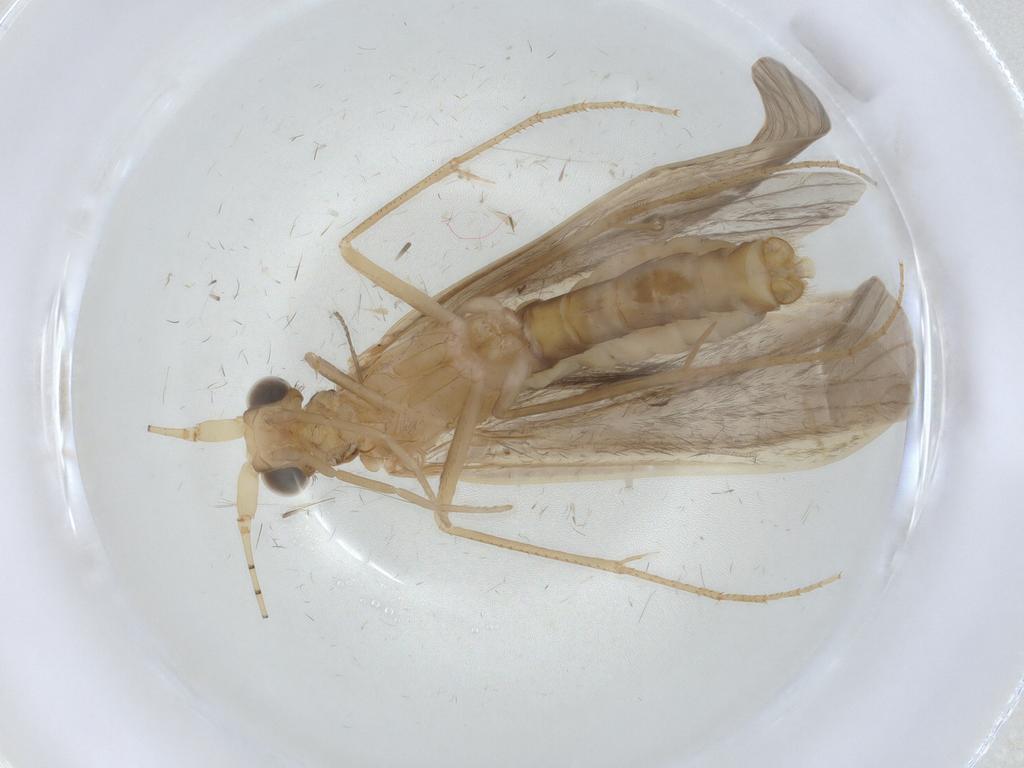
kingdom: Animalia
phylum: Arthropoda
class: Insecta
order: Trichoptera
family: Leptoceridae
